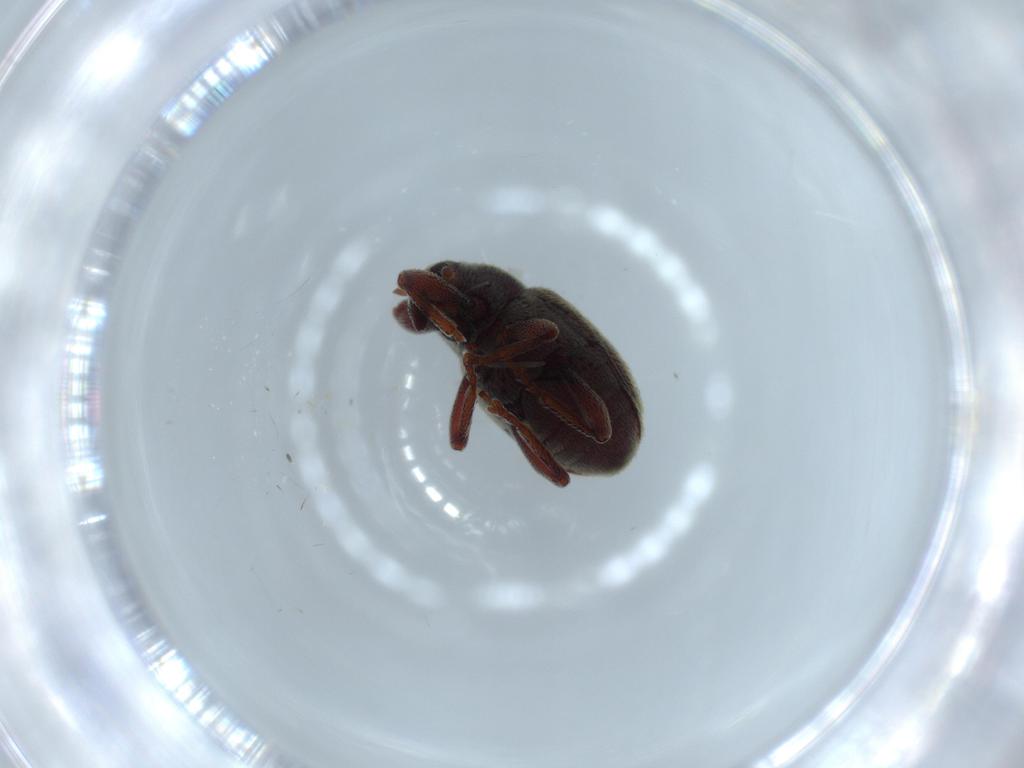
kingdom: Animalia
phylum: Arthropoda
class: Insecta
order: Coleoptera
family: Curculionidae
